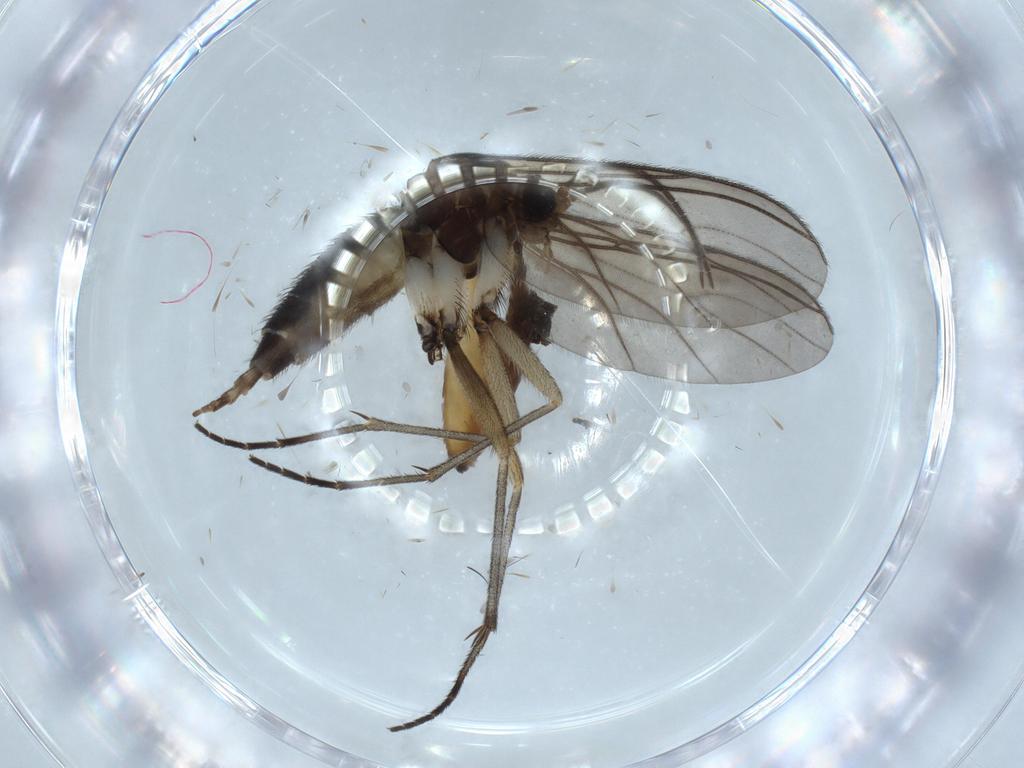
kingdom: Animalia
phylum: Arthropoda
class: Insecta
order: Diptera
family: Sciaridae
